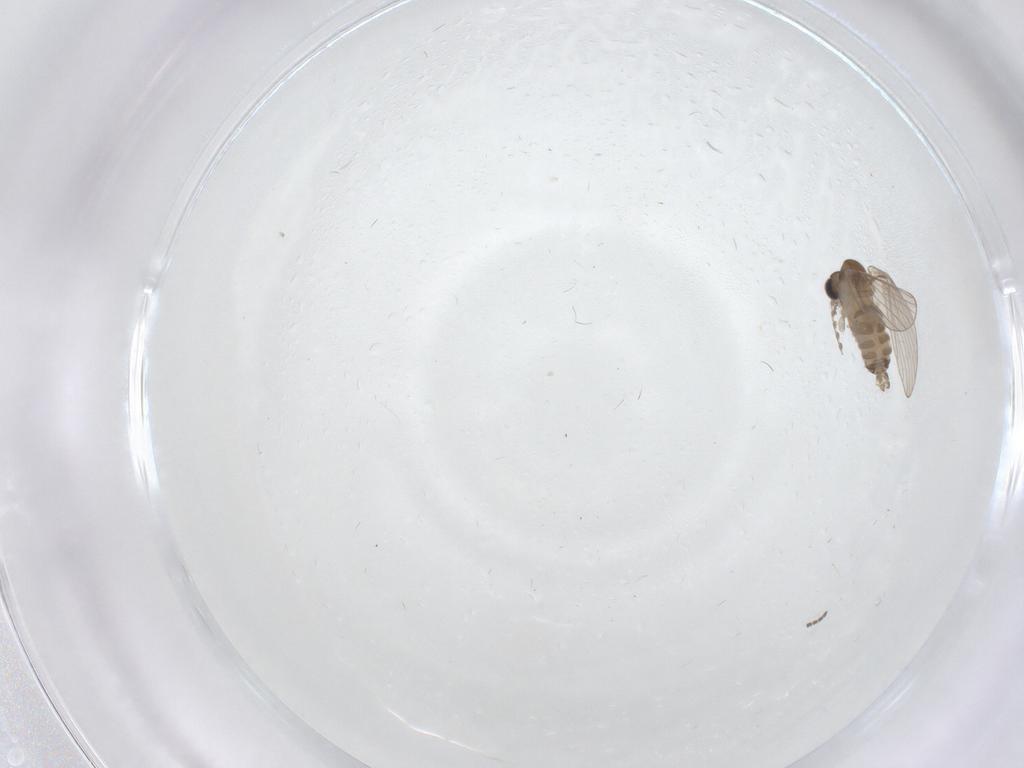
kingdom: Animalia
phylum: Arthropoda
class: Insecta
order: Diptera
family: Sciaridae
